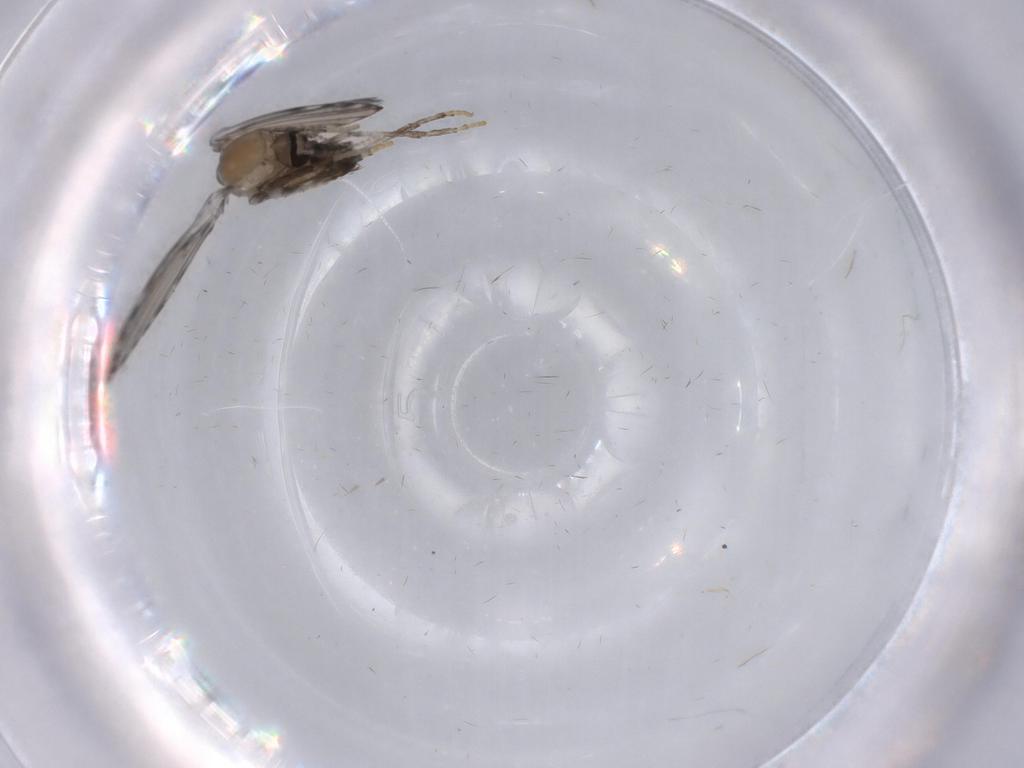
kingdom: Animalia
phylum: Arthropoda
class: Insecta
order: Diptera
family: Psychodidae
